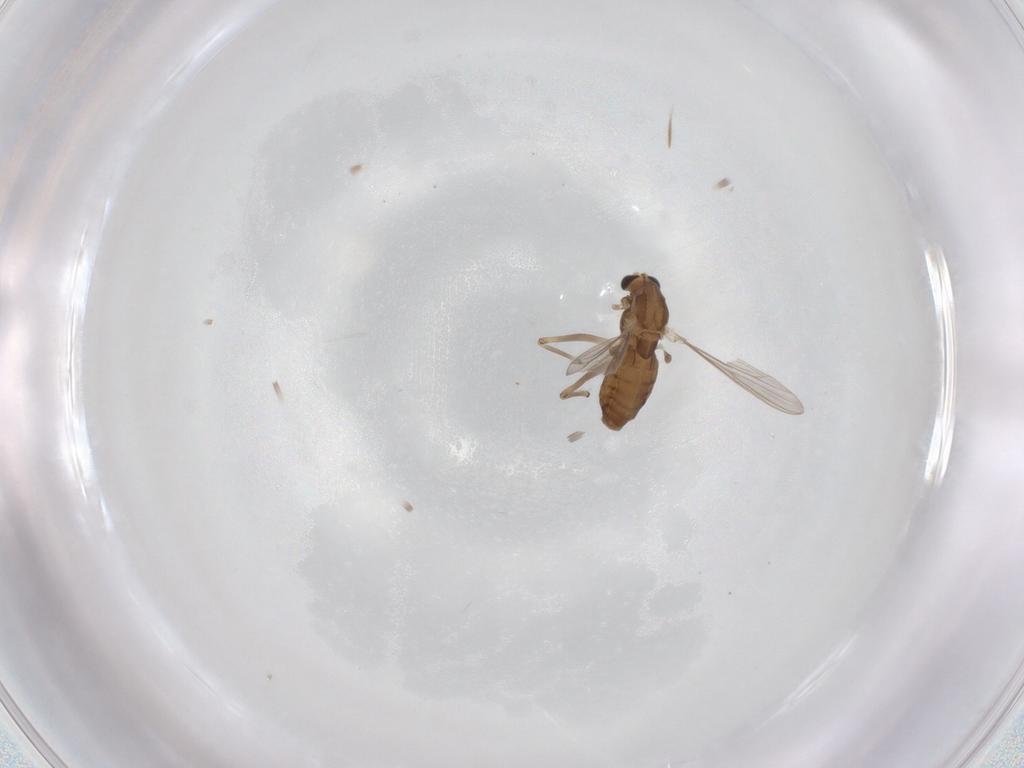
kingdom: Animalia
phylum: Arthropoda
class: Insecta
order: Diptera
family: Chironomidae
